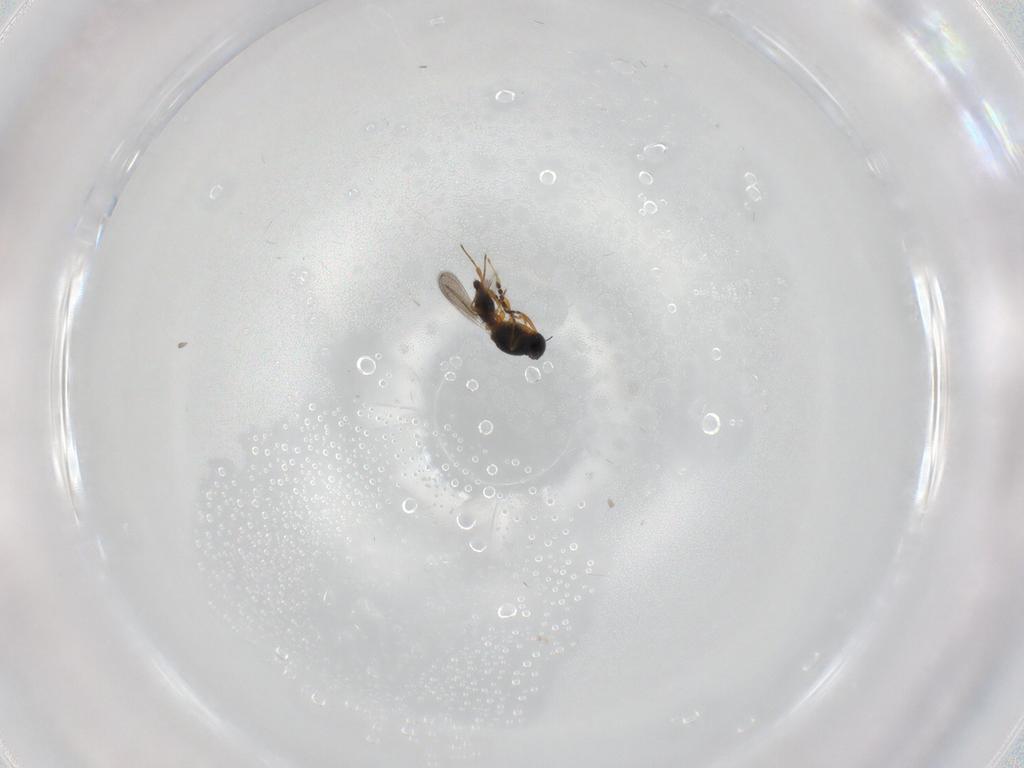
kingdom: Animalia
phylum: Arthropoda
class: Insecta
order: Hymenoptera
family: Platygastridae
